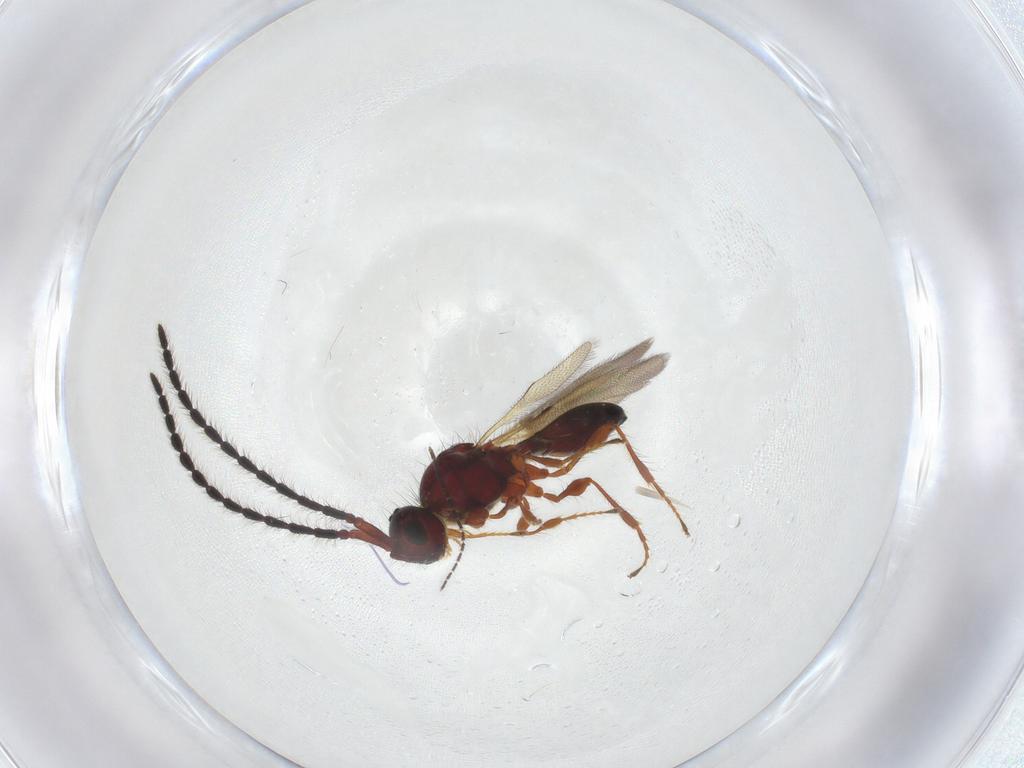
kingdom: Animalia
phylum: Arthropoda
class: Insecta
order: Hymenoptera
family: Diapriidae
